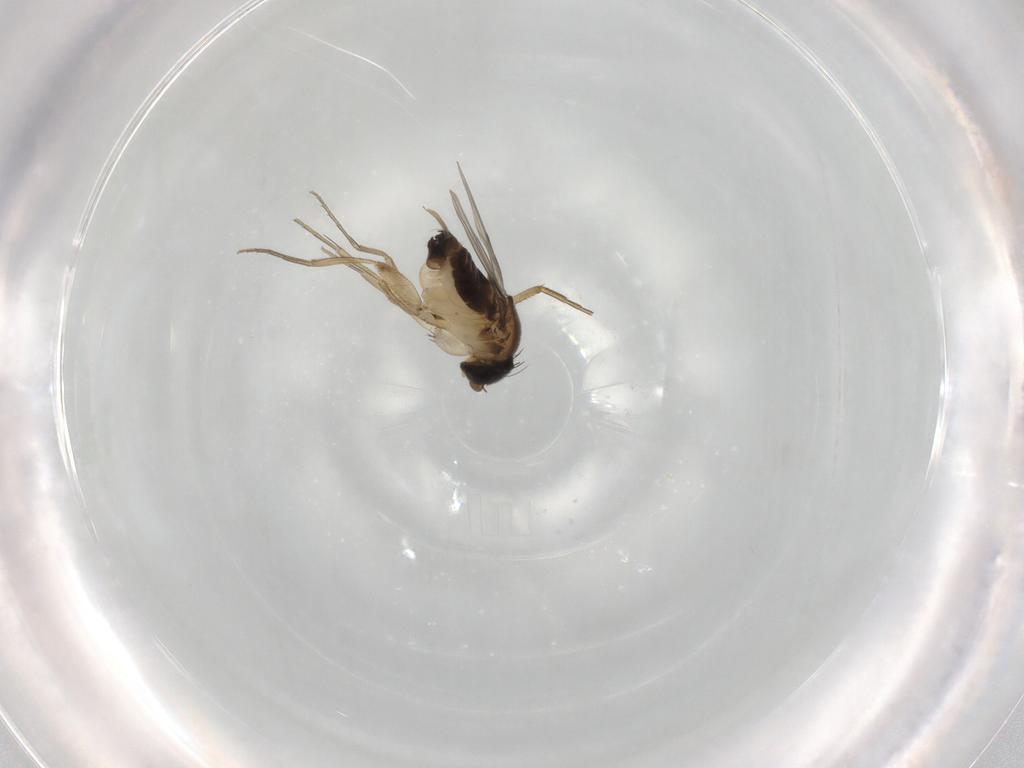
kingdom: Animalia
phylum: Arthropoda
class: Insecta
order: Diptera
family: Phoridae
